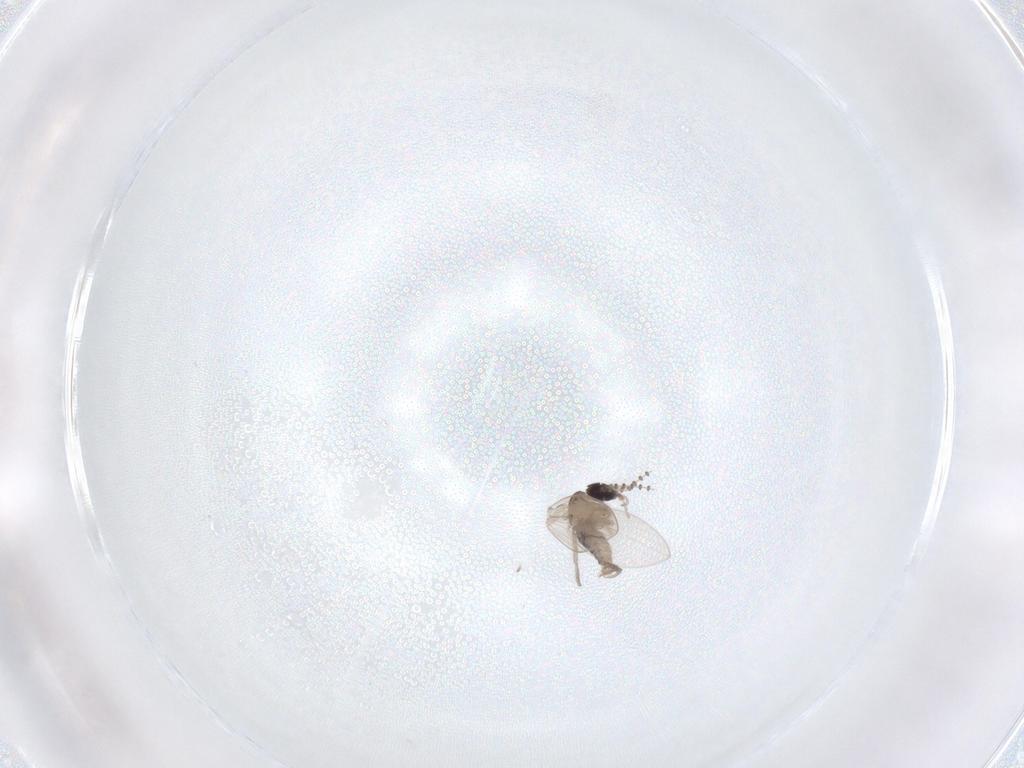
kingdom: Animalia
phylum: Arthropoda
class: Insecta
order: Diptera
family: Psychodidae
